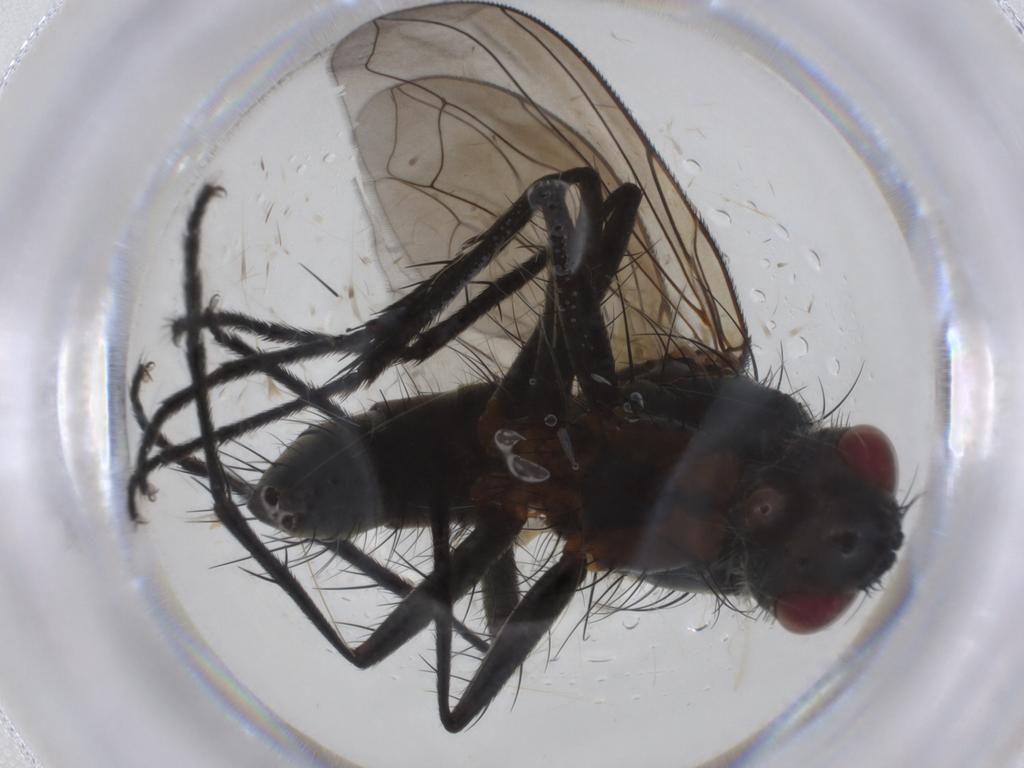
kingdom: Animalia
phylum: Arthropoda
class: Insecta
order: Diptera
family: Tachinidae
